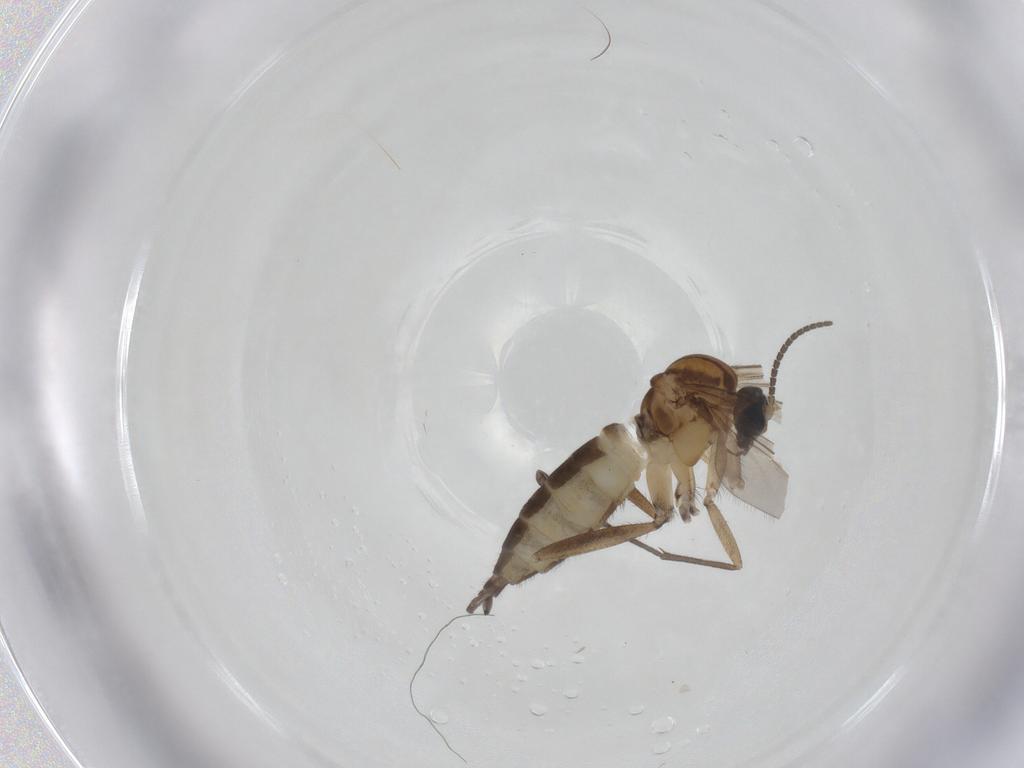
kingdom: Animalia
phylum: Arthropoda
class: Insecta
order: Diptera
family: Sciaridae
